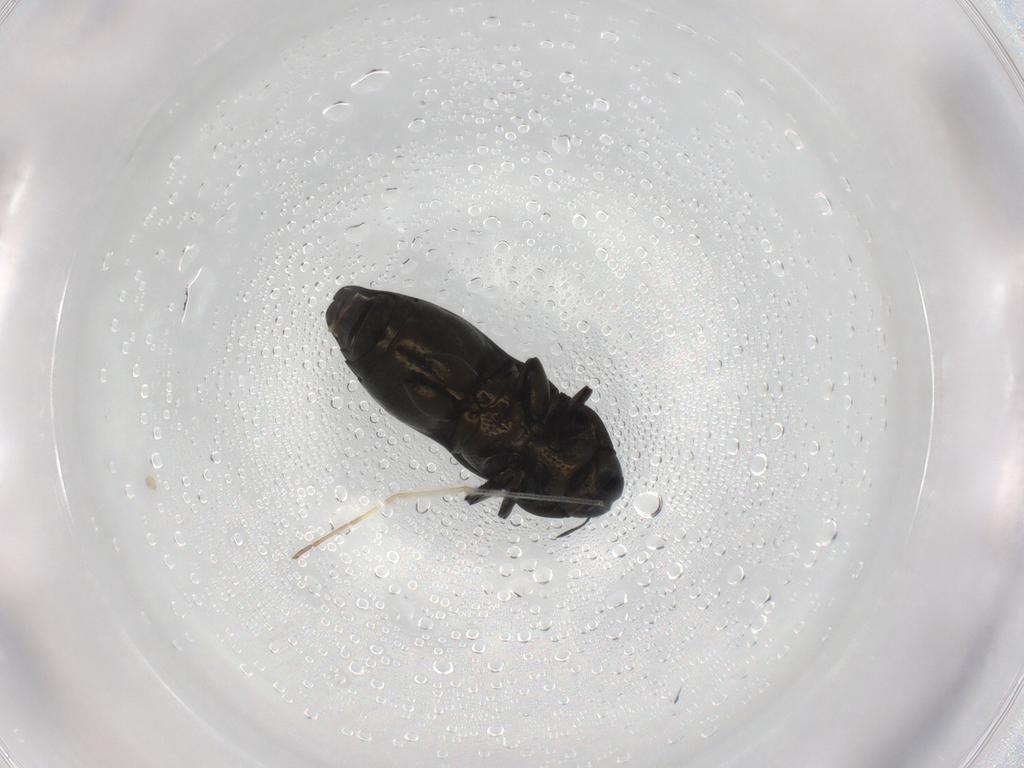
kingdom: Animalia
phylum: Arthropoda
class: Insecta
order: Coleoptera
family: Buprestidae
